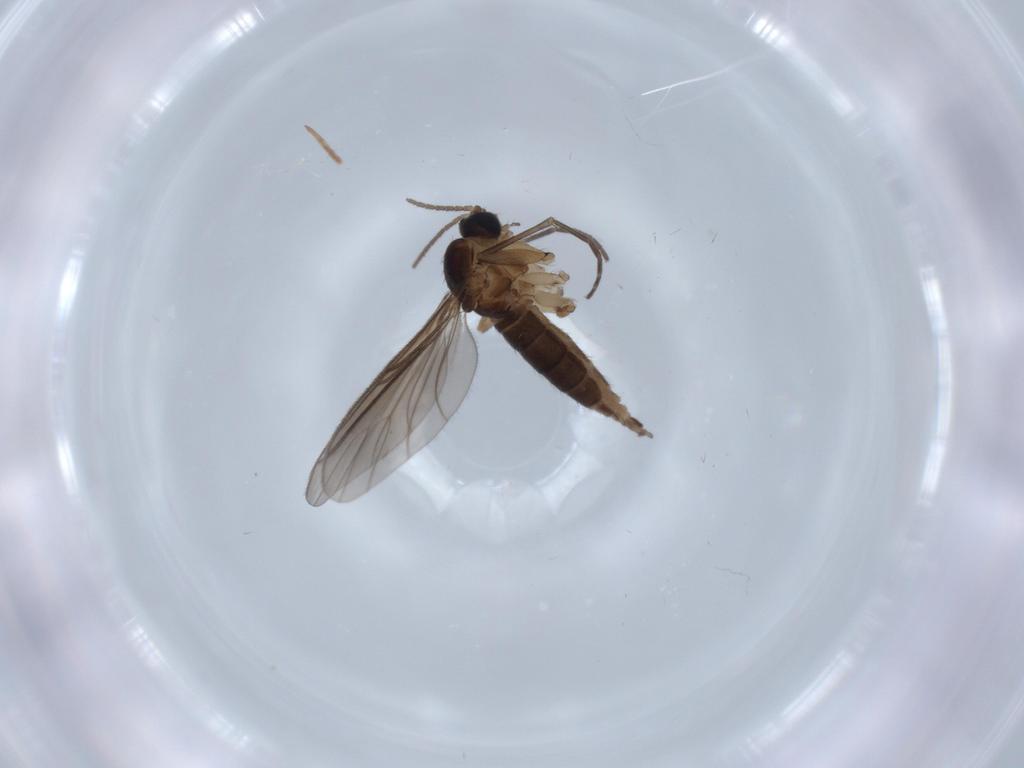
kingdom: Animalia
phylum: Arthropoda
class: Insecta
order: Diptera
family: Sciaridae
